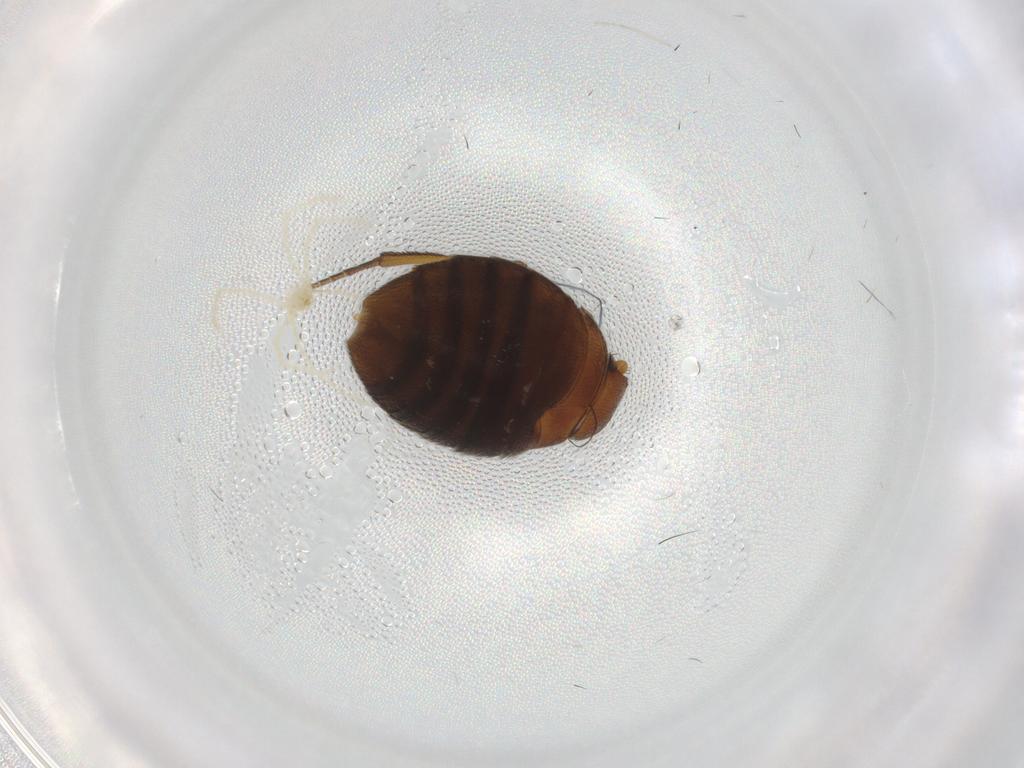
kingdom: Animalia
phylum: Arthropoda
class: Insecta
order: Diptera
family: Phoridae
